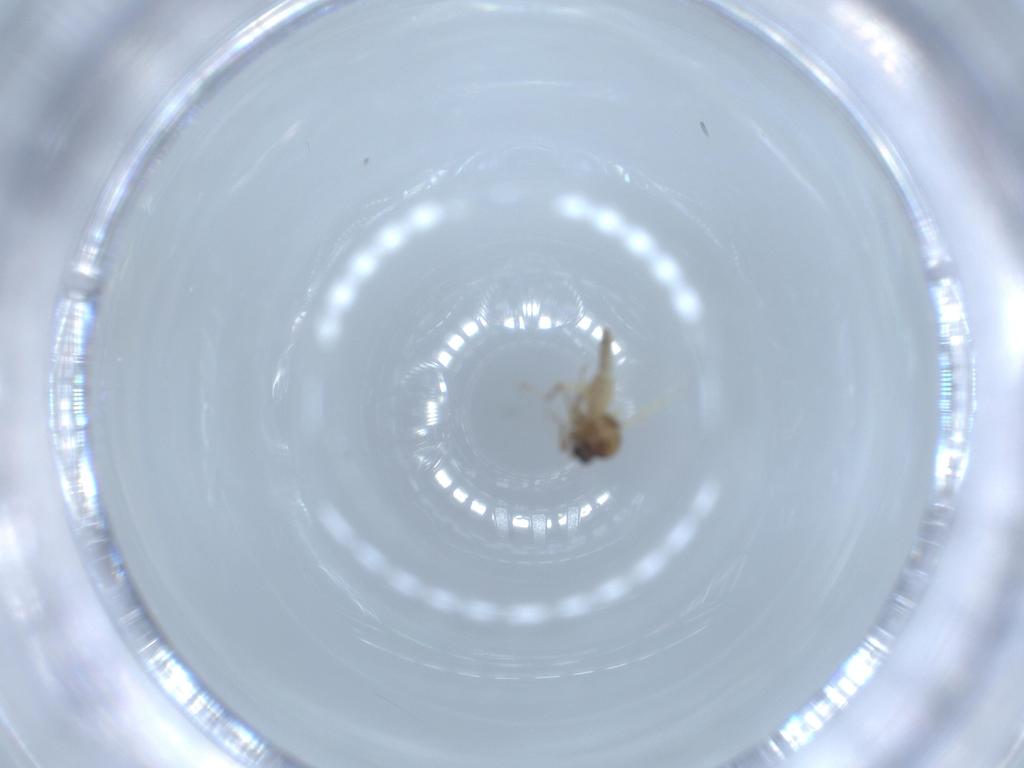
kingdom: Animalia
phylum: Arthropoda
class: Insecta
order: Diptera
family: Ceratopogonidae
